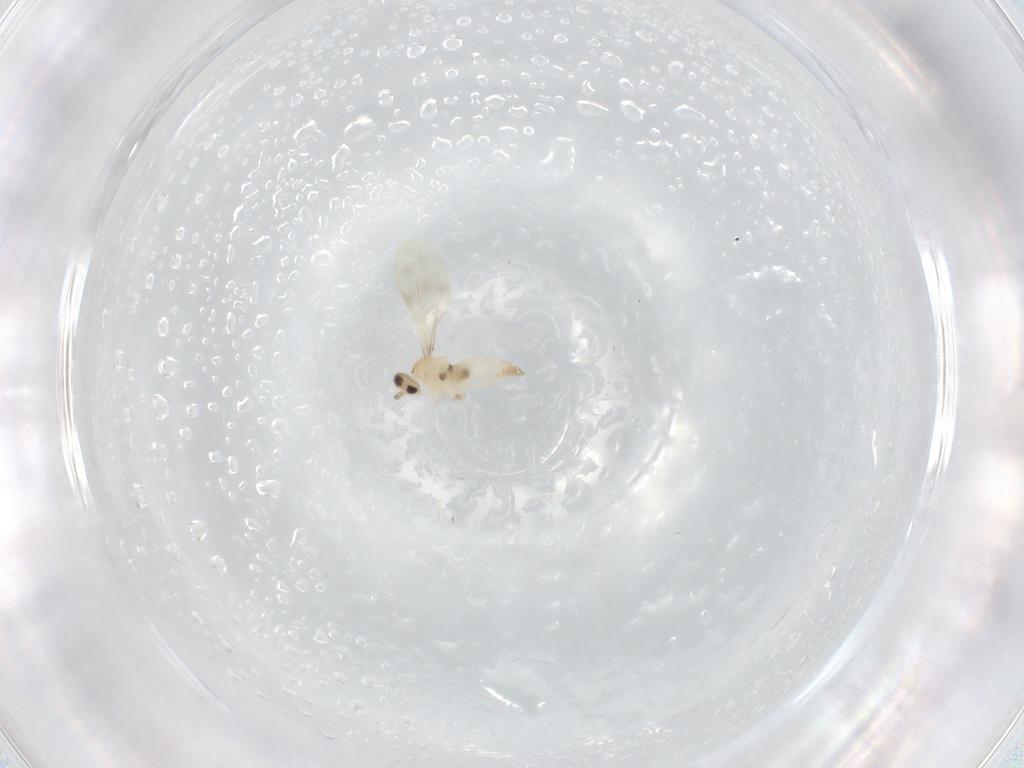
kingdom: Animalia
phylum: Arthropoda
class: Insecta
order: Diptera
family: Cecidomyiidae
